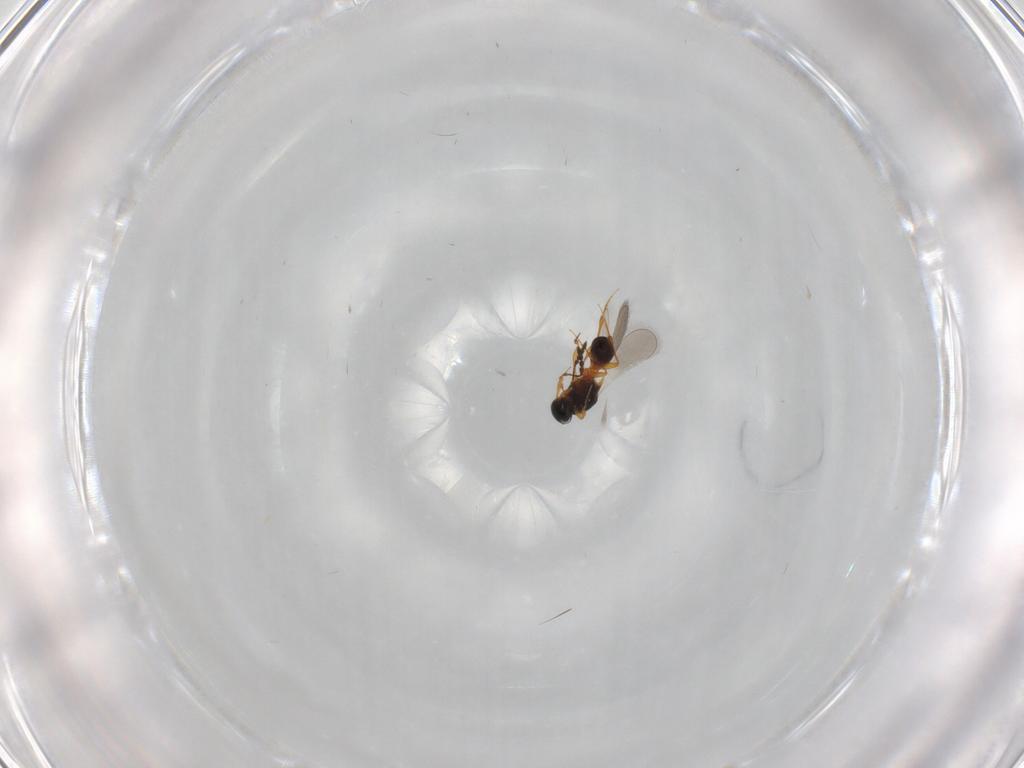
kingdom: Animalia
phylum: Arthropoda
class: Insecta
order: Hymenoptera
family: Platygastridae
